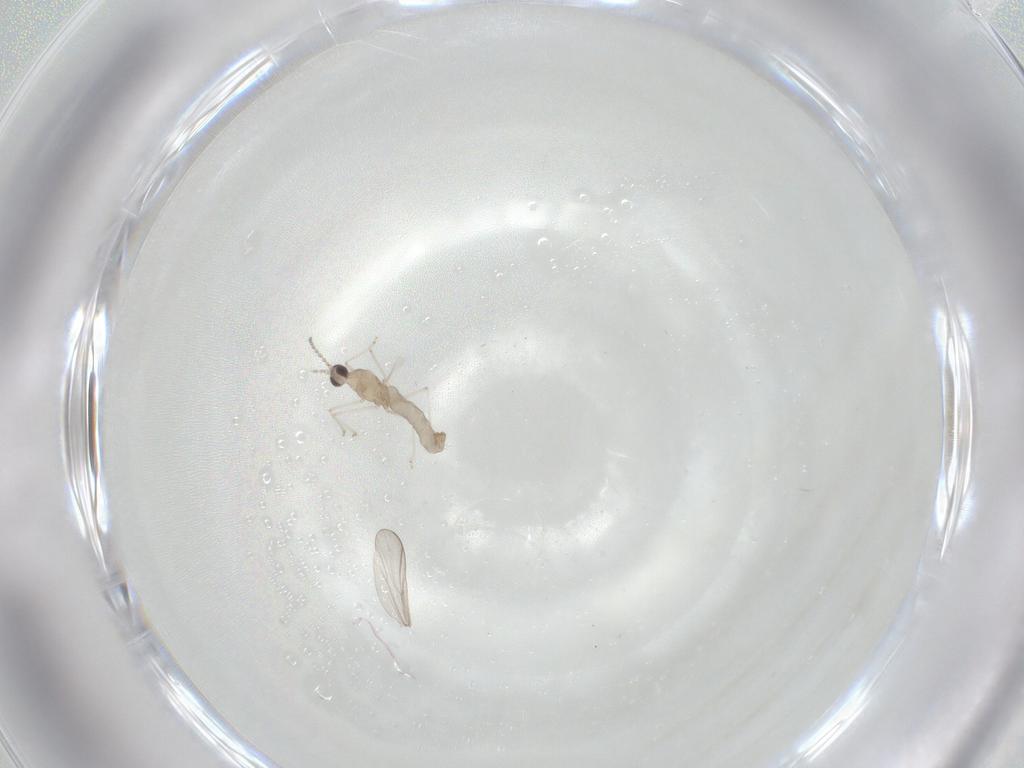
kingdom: Animalia
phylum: Arthropoda
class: Insecta
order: Diptera
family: Cecidomyiidae
